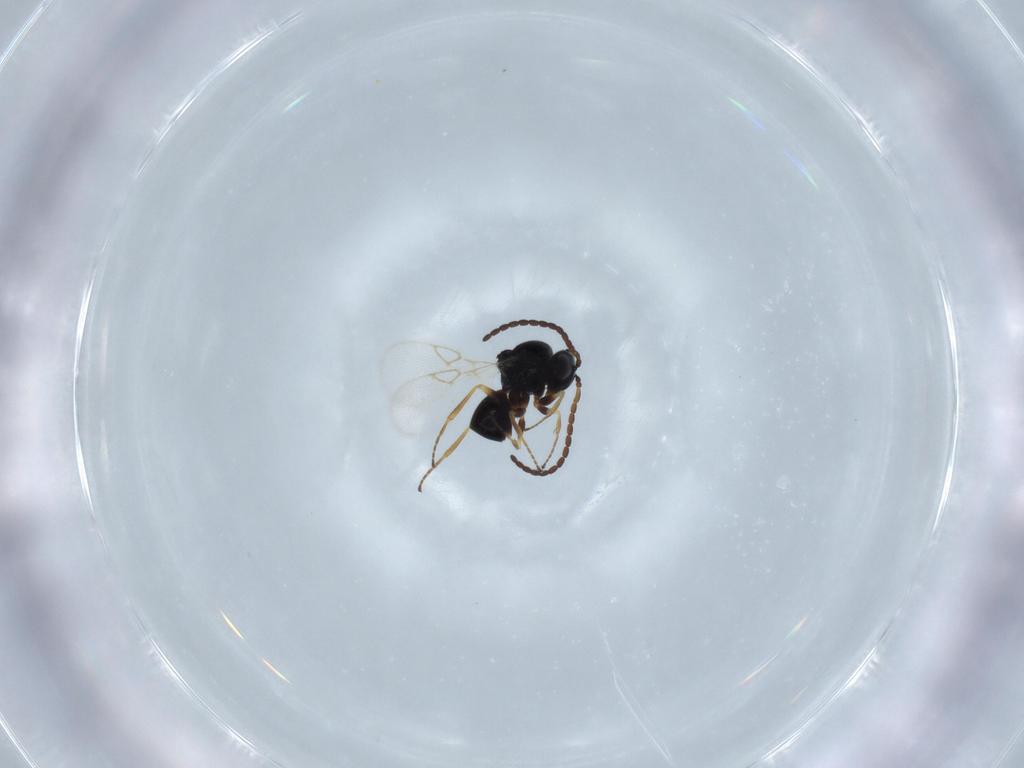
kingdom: Animalia
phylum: Arthropoda
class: Insecta
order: Hymenoptera
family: Figitidae
